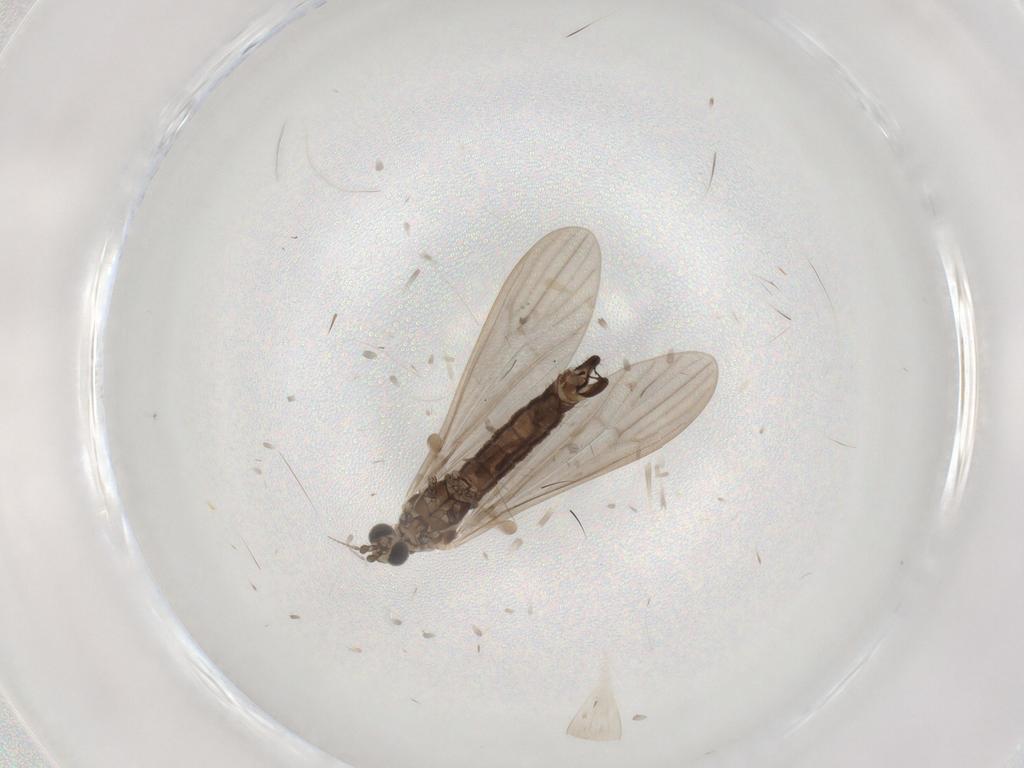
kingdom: Animalia
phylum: Arthropoda
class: Insecta
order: Diptera
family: Limoniidae
